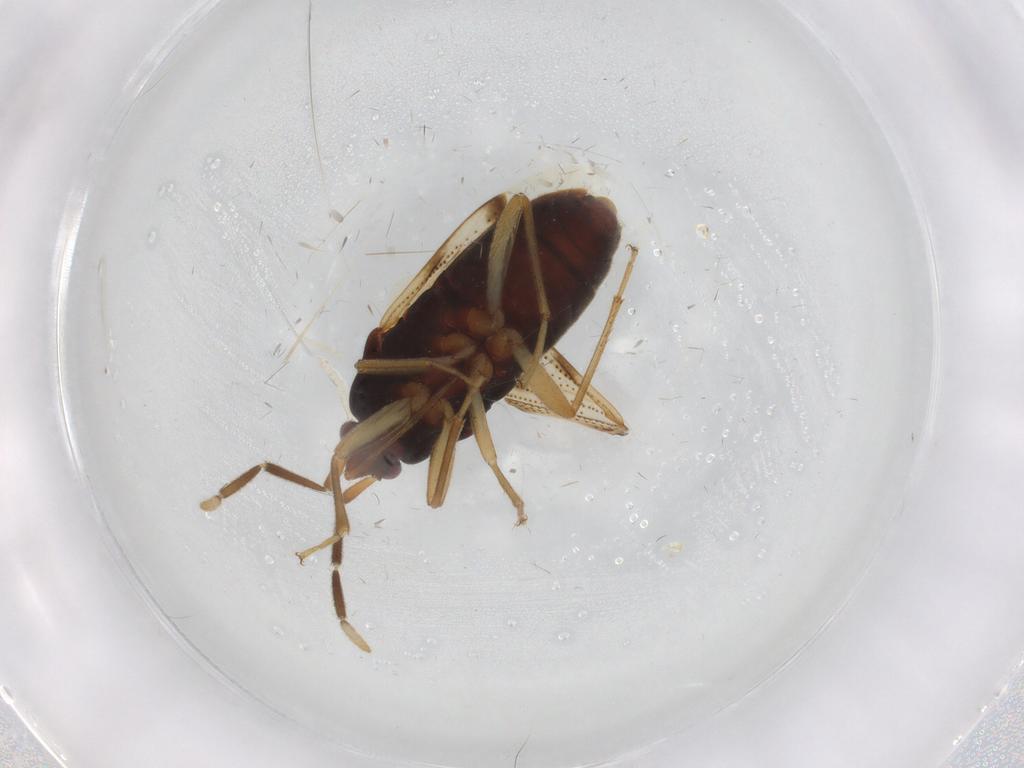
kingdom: Animalia
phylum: Arthropoda
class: Insecta
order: Hemiptera
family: Rhyparochromidae
